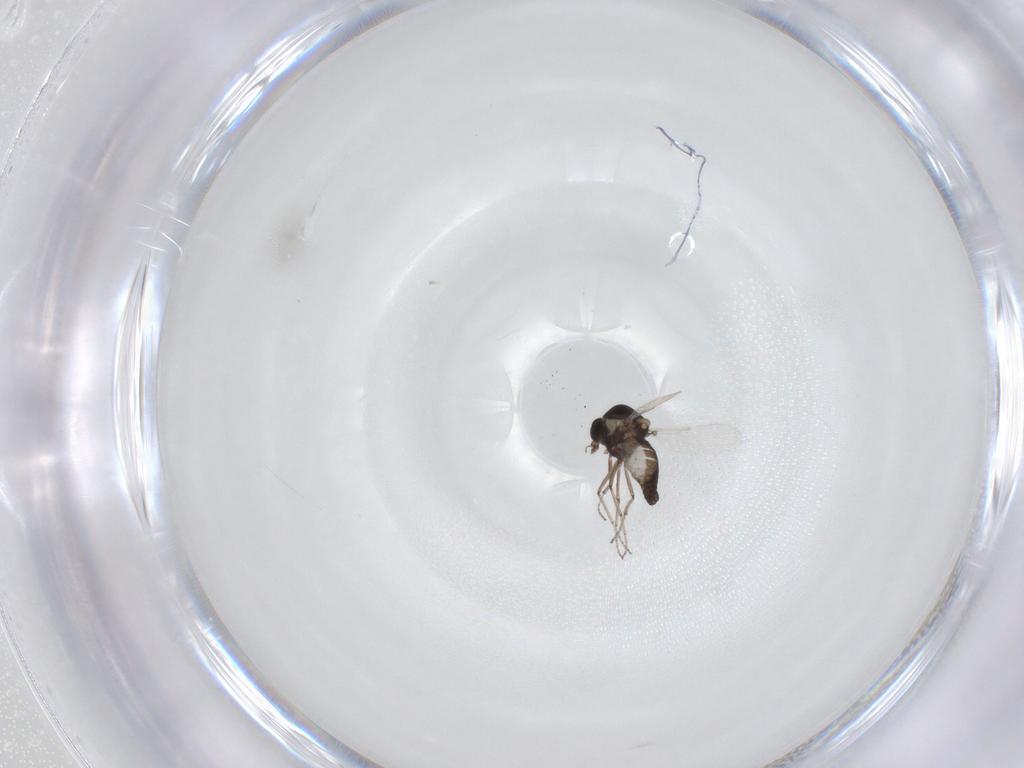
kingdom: Animalia
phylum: Arthropoda
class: Insecta
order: Diptera
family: Ceratopogonidae
